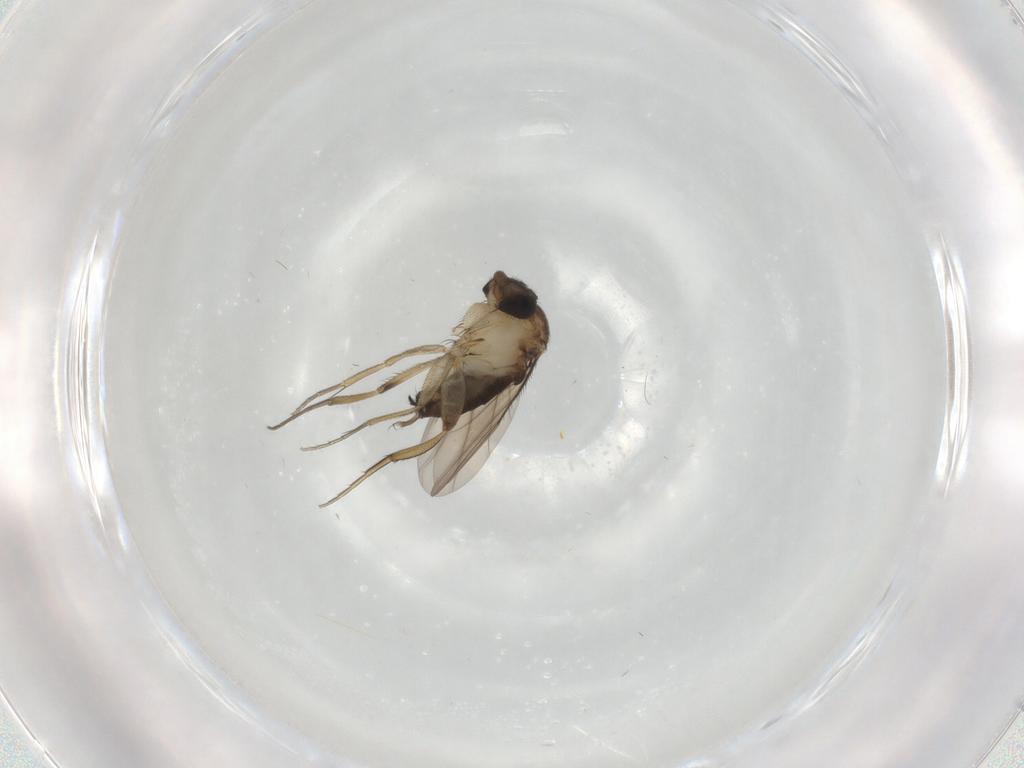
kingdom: Animalia
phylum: Arthropoda
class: Insecta
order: Diptera
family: Phoridae
